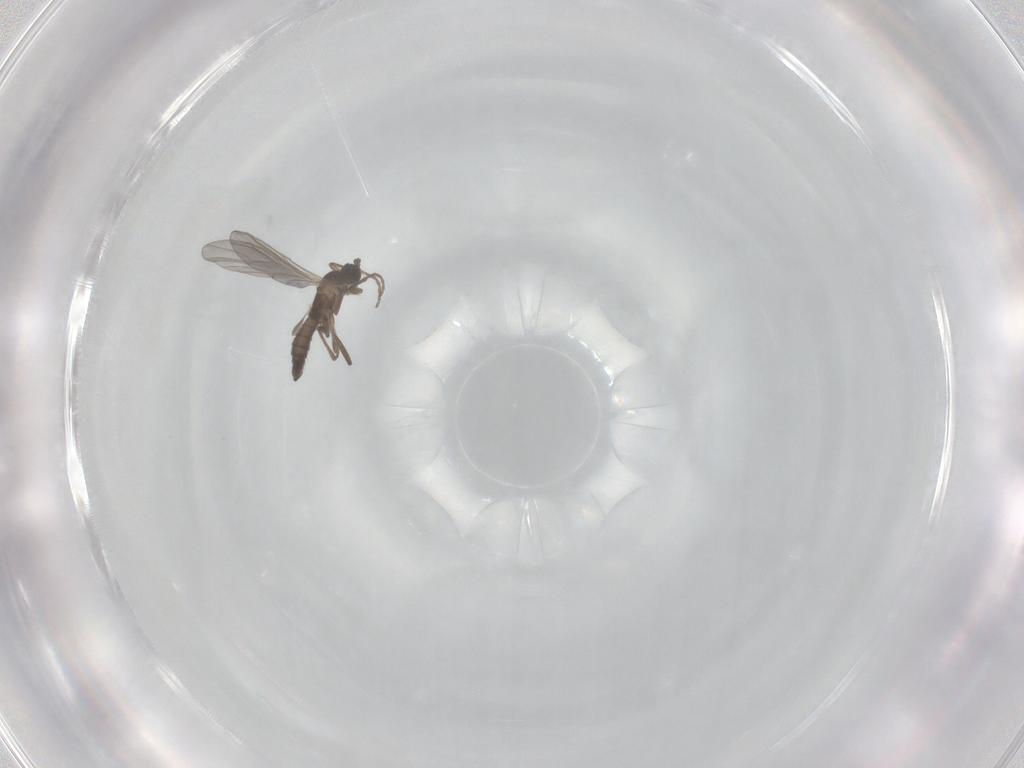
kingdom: Animalia
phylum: Arthropoda
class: Insecta
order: Diptera
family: Sciaridae
